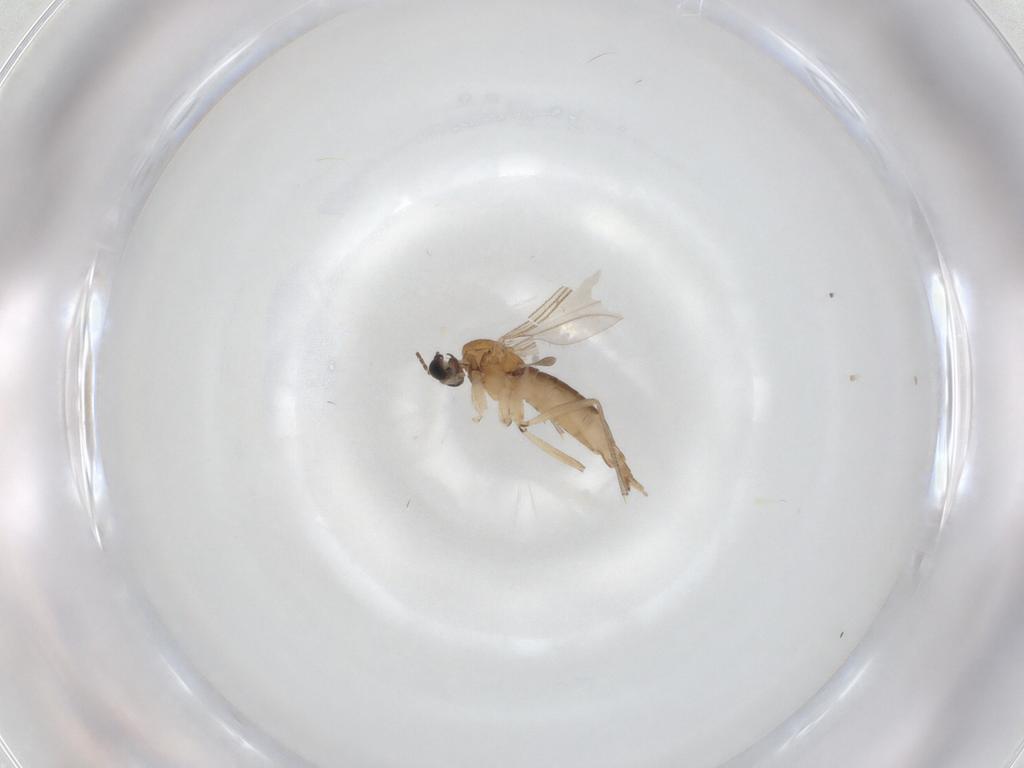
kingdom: Animalia
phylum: Arthropoda
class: Insecta
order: Diptera
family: Sciaridae
